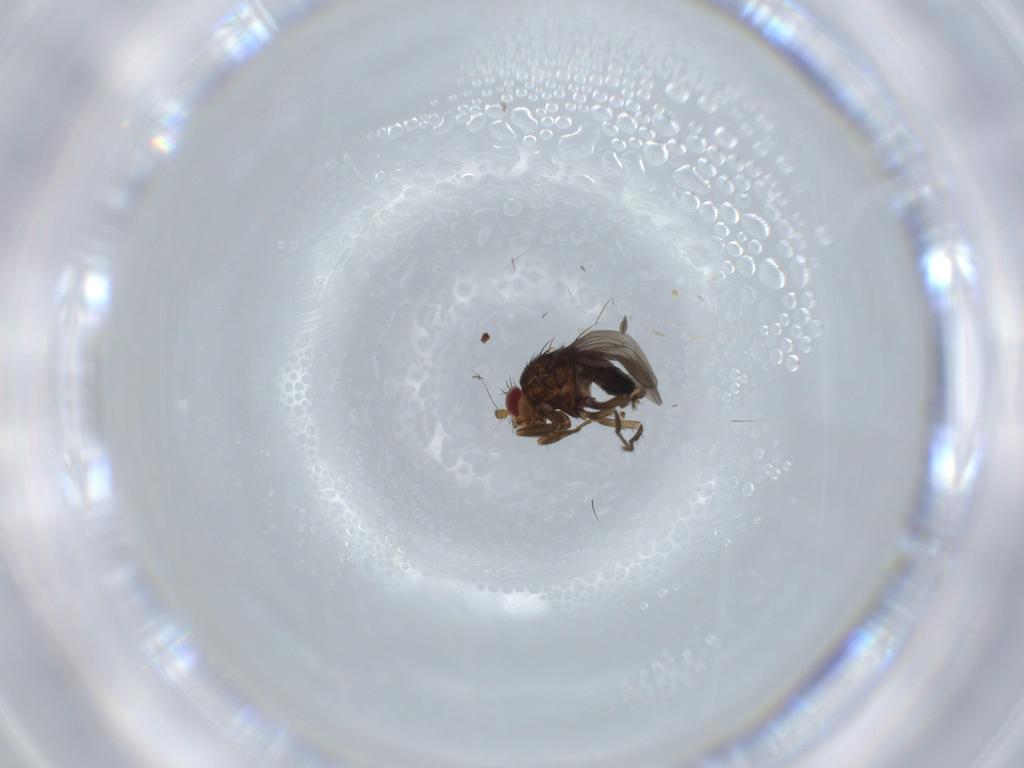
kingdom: Animalia
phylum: Arthropoda
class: Insecta
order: Diptera
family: Sphaeroceridae
